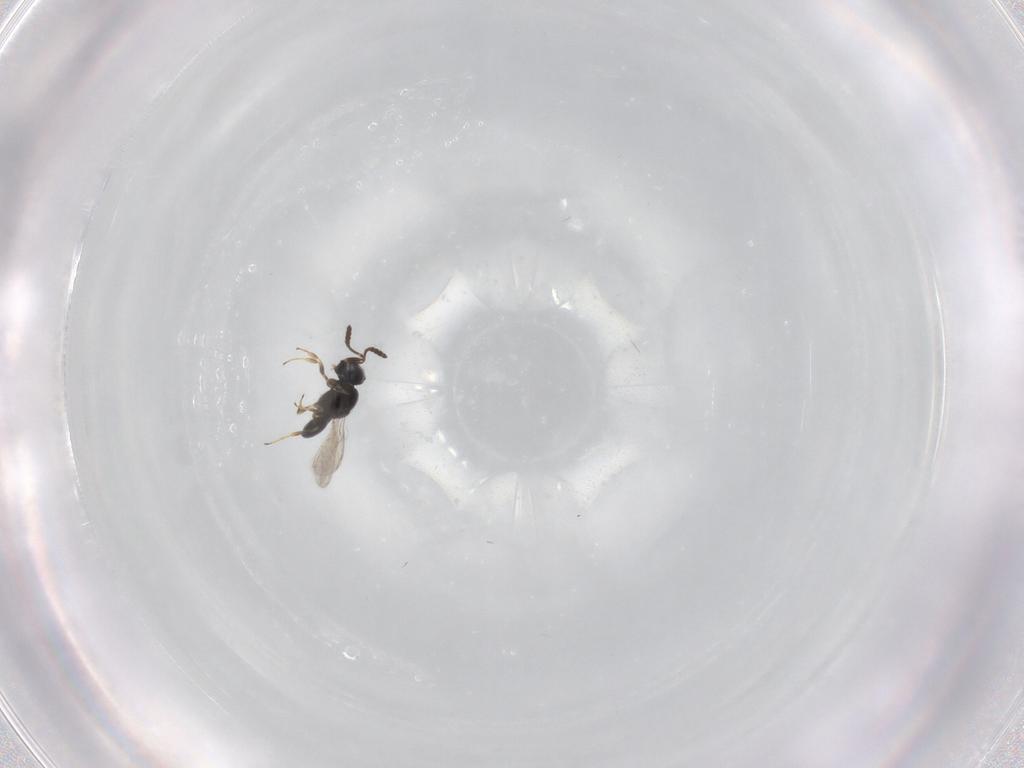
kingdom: Animalia
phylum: Arthropoda
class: Insecta
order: Hymenoptera
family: Scelionidae
